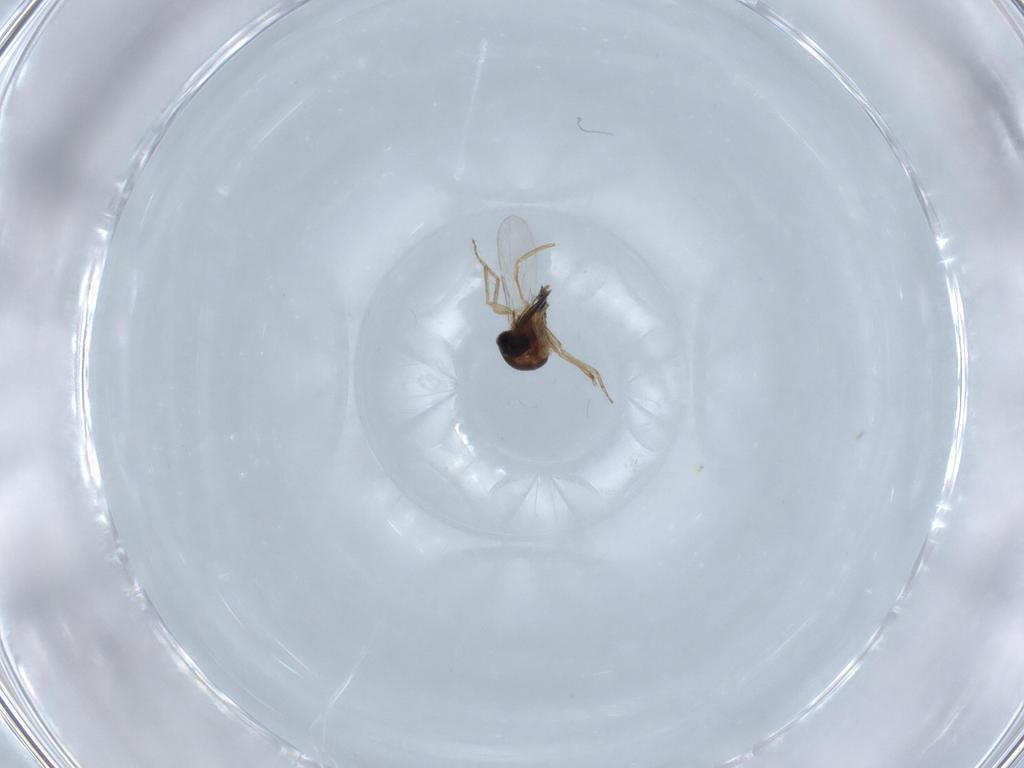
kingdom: Animalia
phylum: Arthropoda
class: Insecta
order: Diptera
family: Ceratopogonidae
